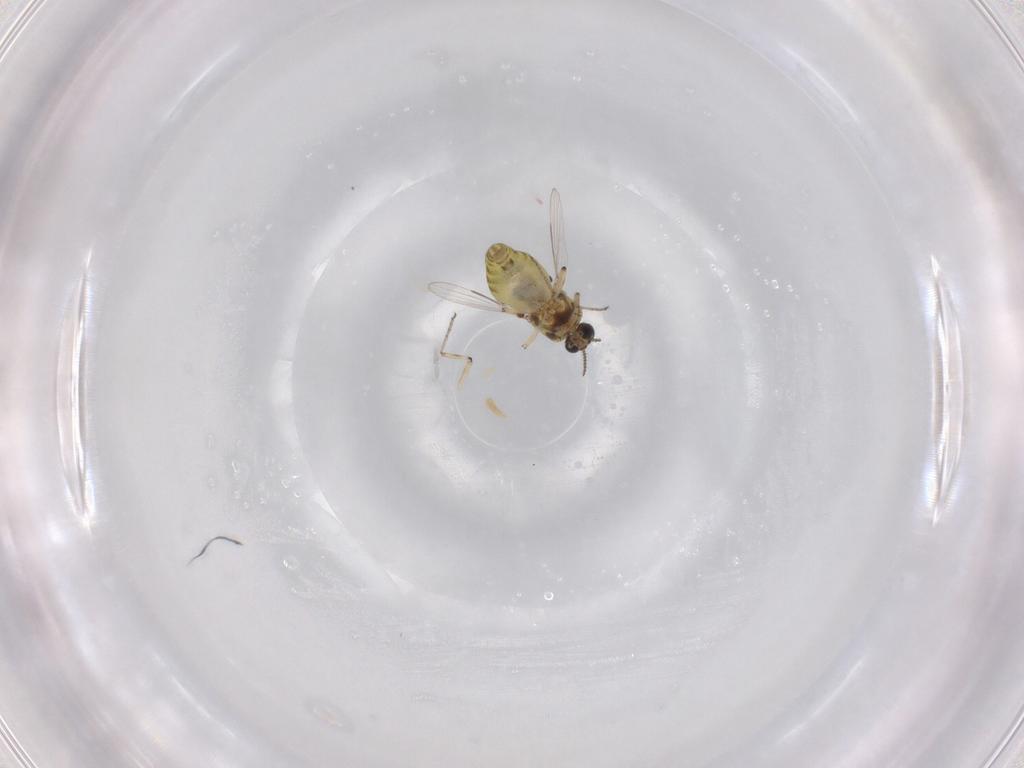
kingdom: Animalia
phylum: Arthropoda
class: Insecta
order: Diptera
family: Ceratopogonidae
